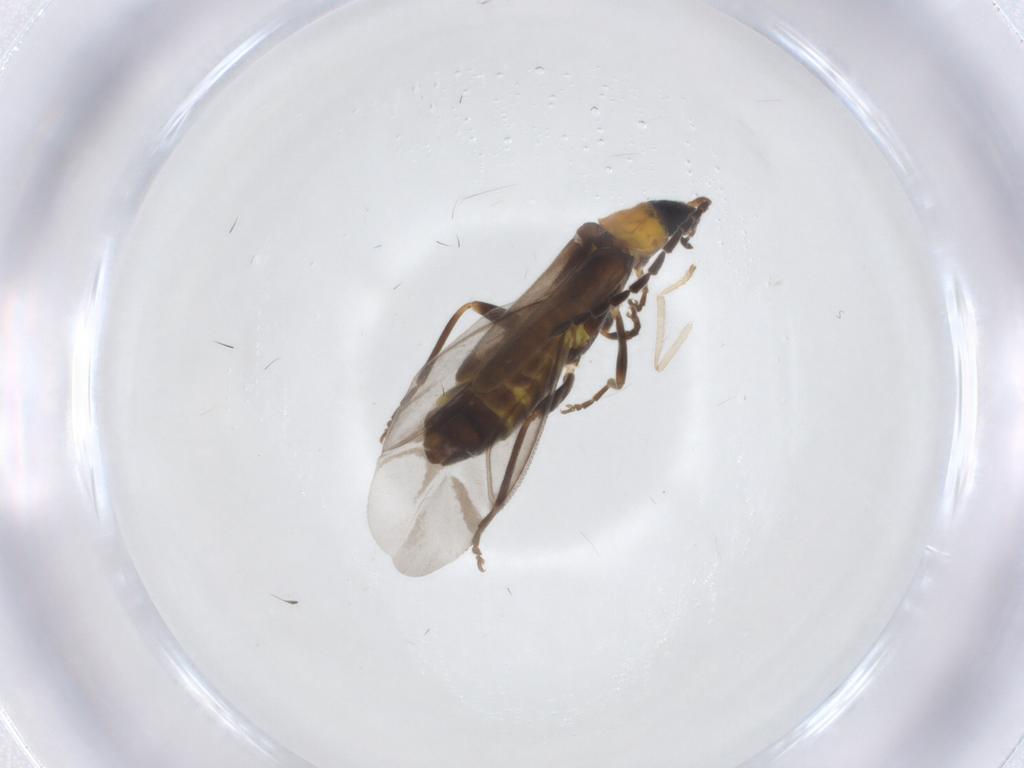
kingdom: Animalia
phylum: Arthropoda
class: Insecta
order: Coleoptera
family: Cantharidae
